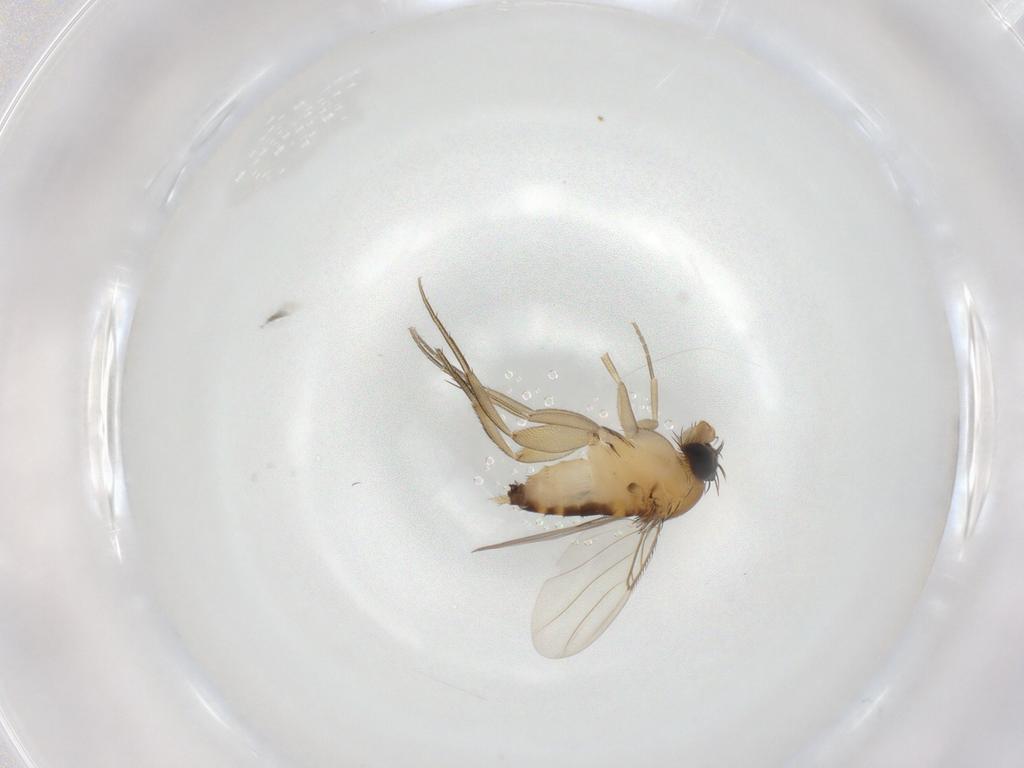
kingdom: Animalia
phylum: Arthropoda
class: Insecta
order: Diptera
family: Phoridae
